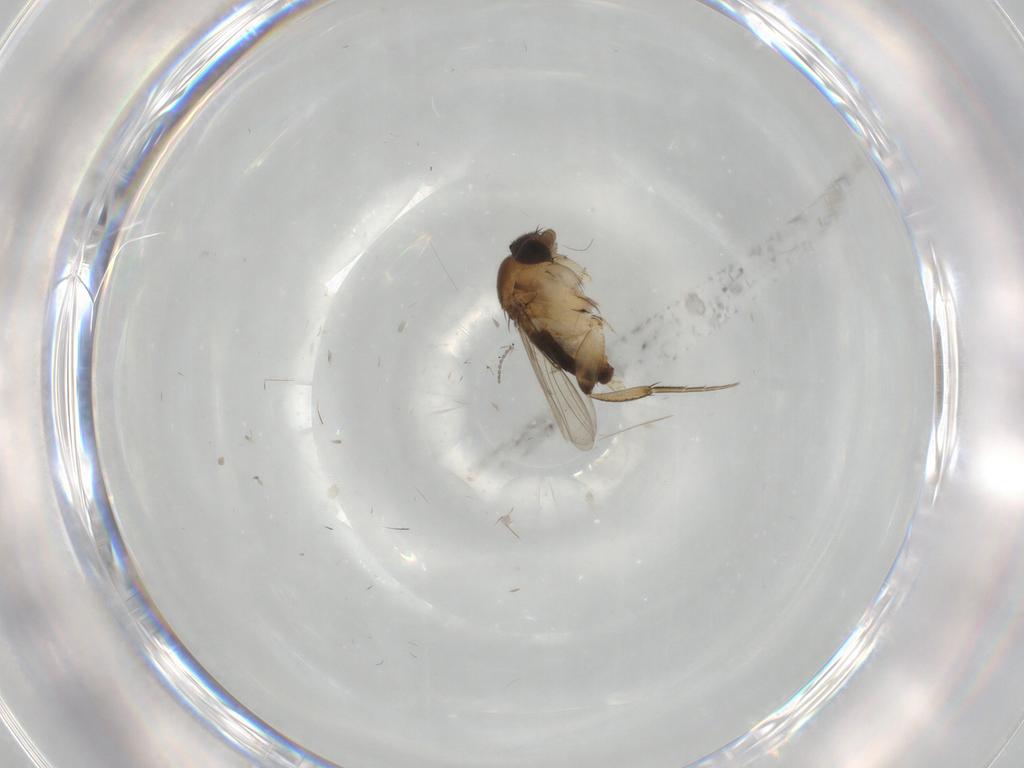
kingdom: Animalia
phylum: Arthropoda
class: Insecta
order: Diptera
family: Phoridae
